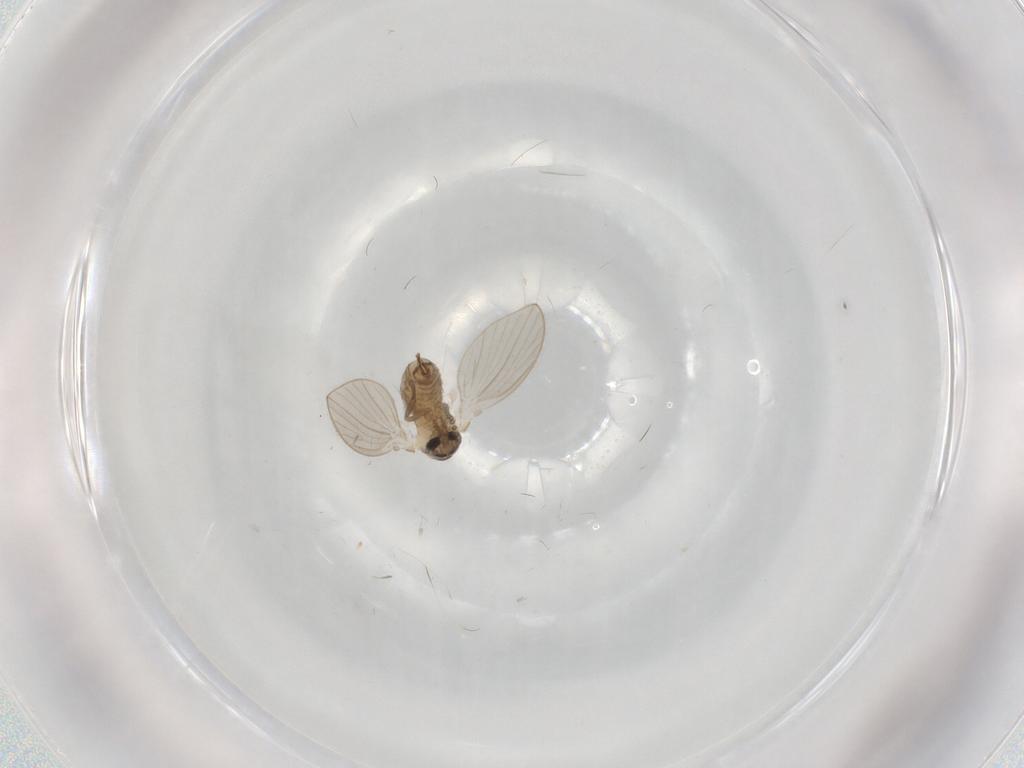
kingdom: Animalia
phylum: Arthropoda
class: Insecta
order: Diptera
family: Psychodidae
